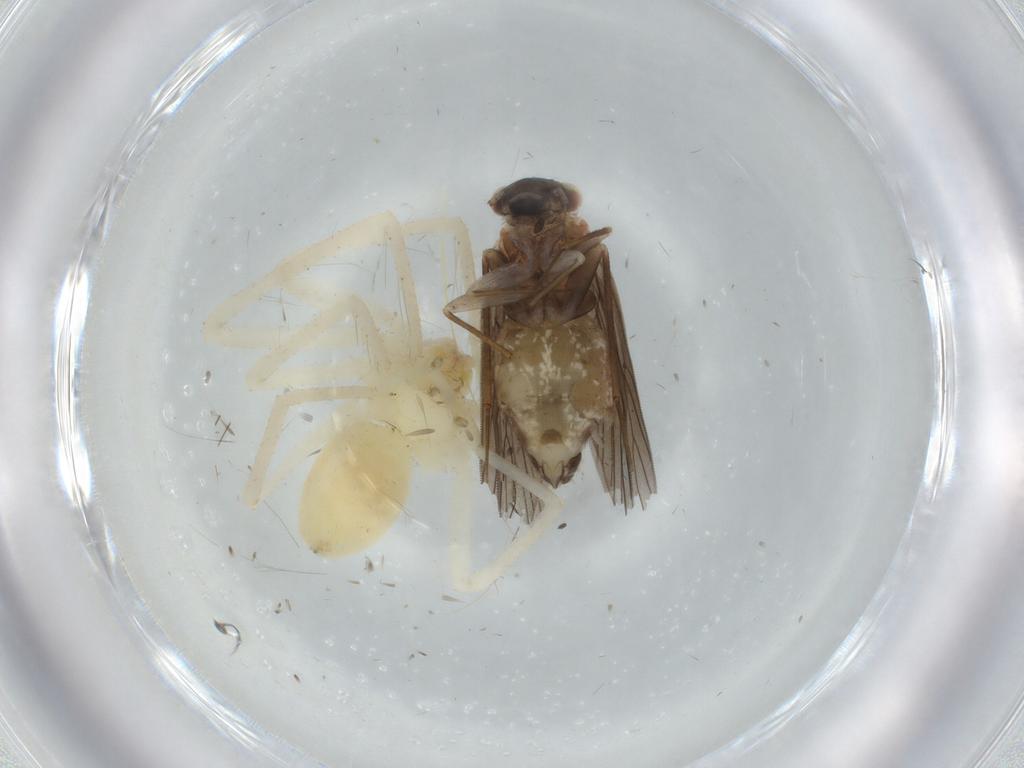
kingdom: Animalia
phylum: Arthropoda
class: Insecta
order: Psocodea
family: Lepidopsocidae
